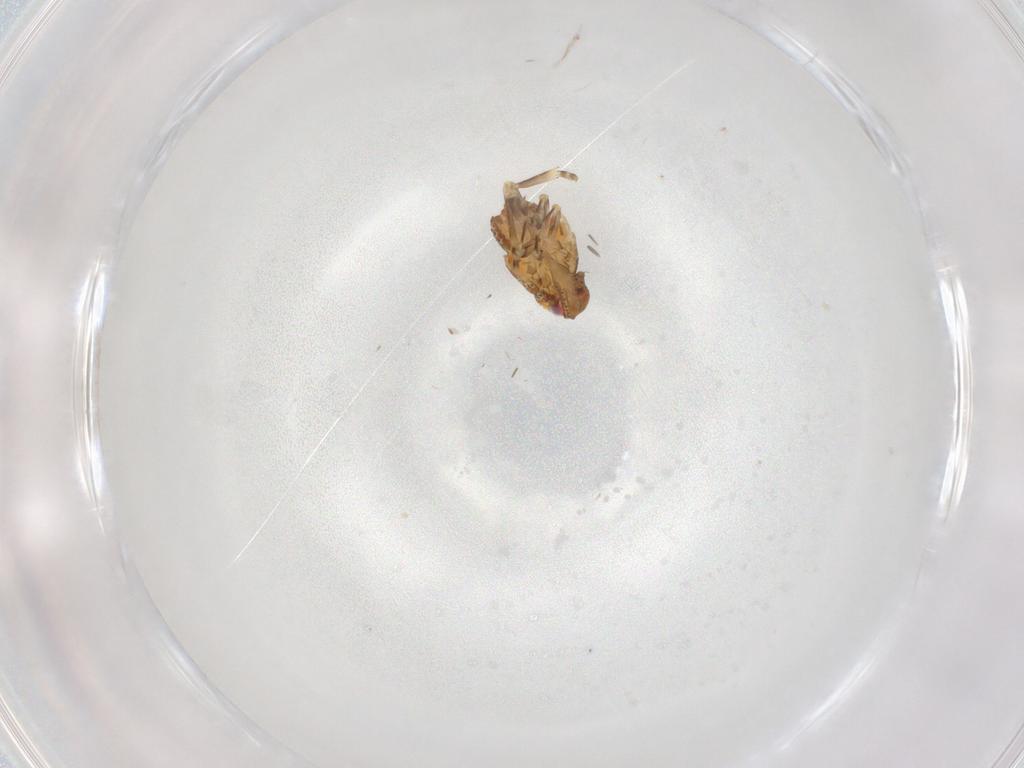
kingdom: Animalia
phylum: Arthropoda
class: Insecta
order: Hemiptera
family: Flatidae
